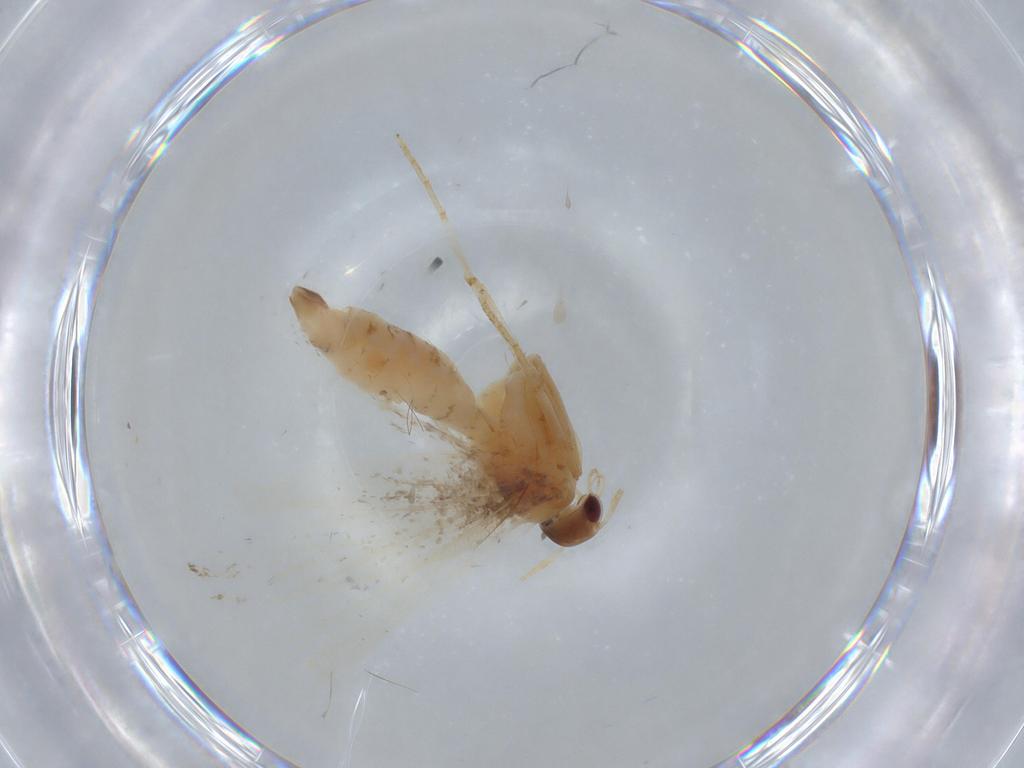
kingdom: Animalia
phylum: Arthropoda
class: Insecta
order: Lepidoptera
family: Gelechiidae
